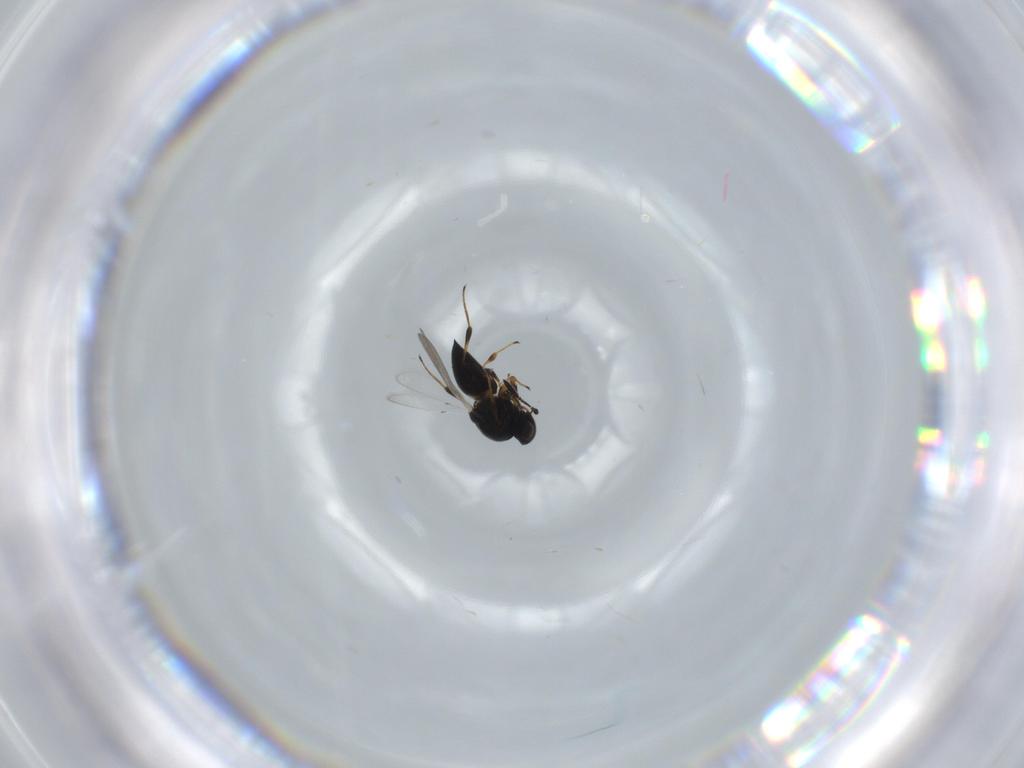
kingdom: Animalia
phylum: Arthropoda
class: Insecta
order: Hymenoptera
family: Platygastridae
